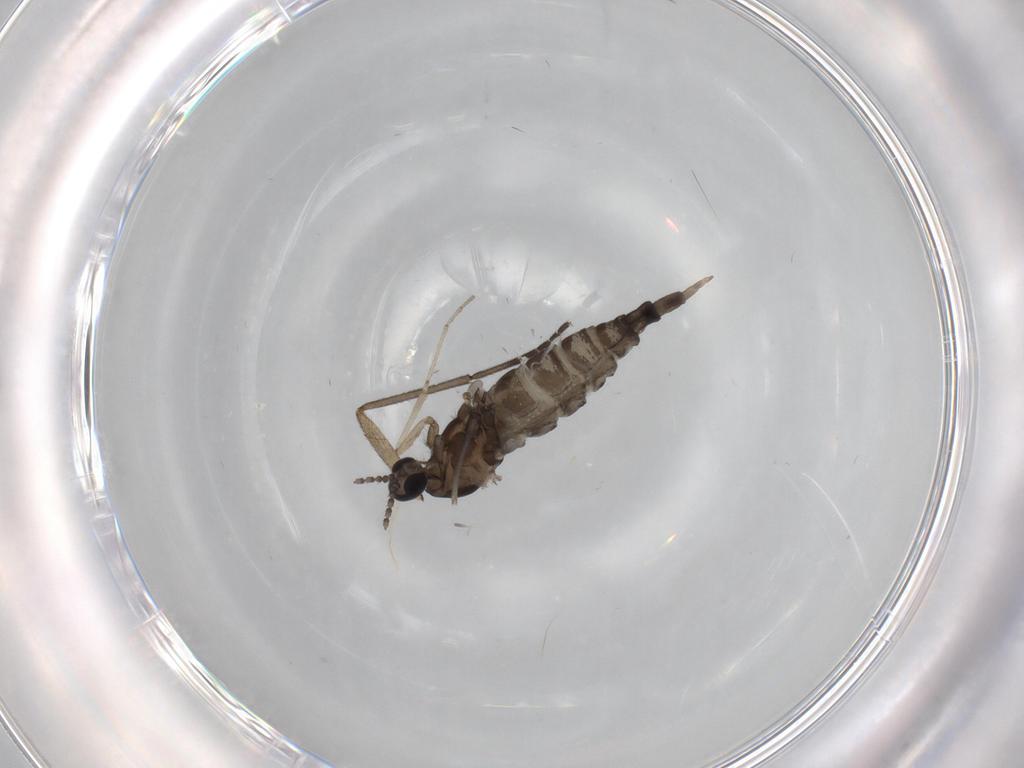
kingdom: Animalia
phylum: Arthropoda
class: Insecta
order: Diptera
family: Cecidomyiidae
